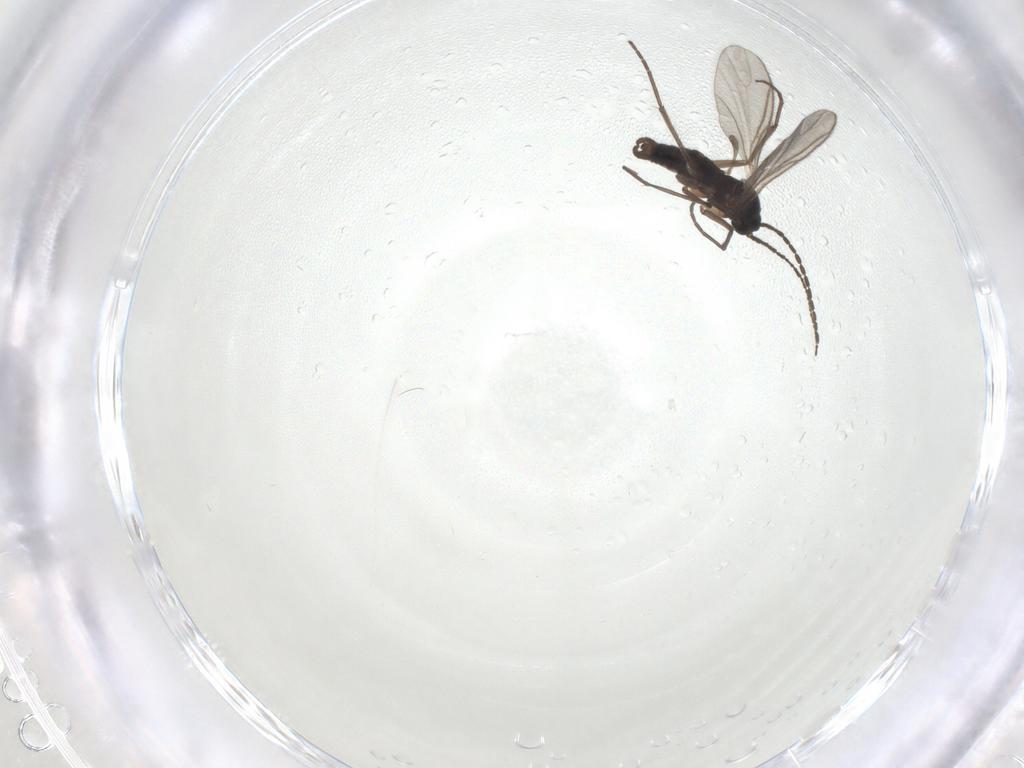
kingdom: Animalia
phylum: Arthropoda
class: Insecta
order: Diptera
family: Sciaridae
